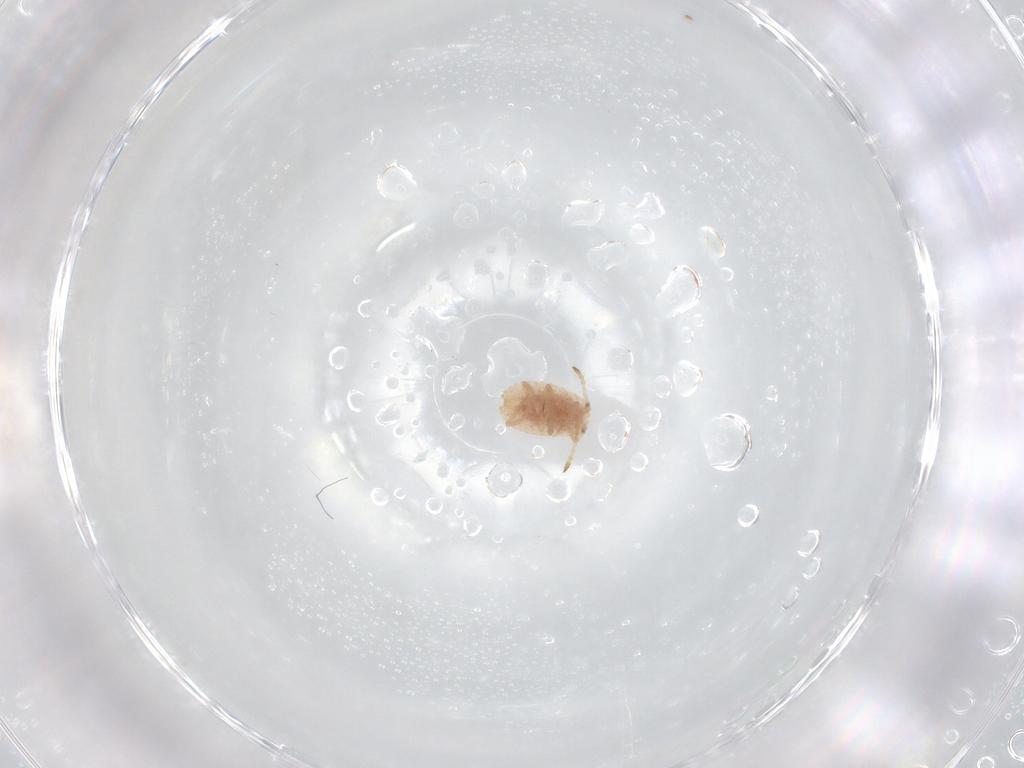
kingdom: Animalia
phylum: Arthropoda
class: Insecta
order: Hemiptera
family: Coccoidea_incertae_sedis
